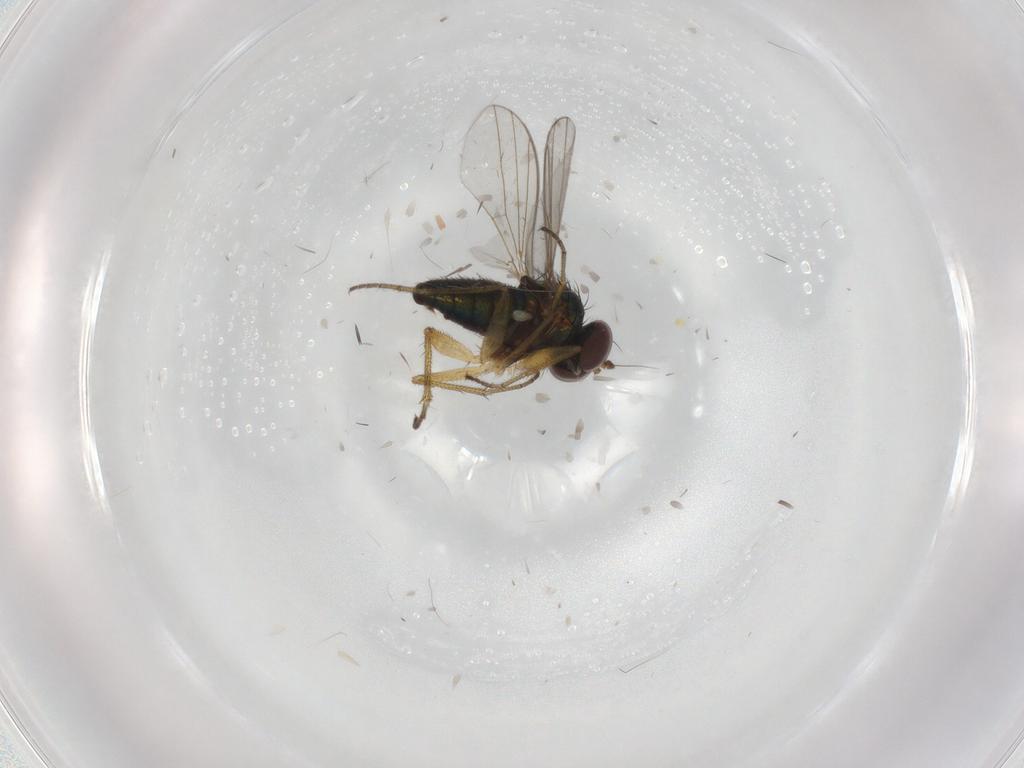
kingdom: Animalia
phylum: Arthropoda
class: Insecta
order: Diptera
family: Dolichopodidae
